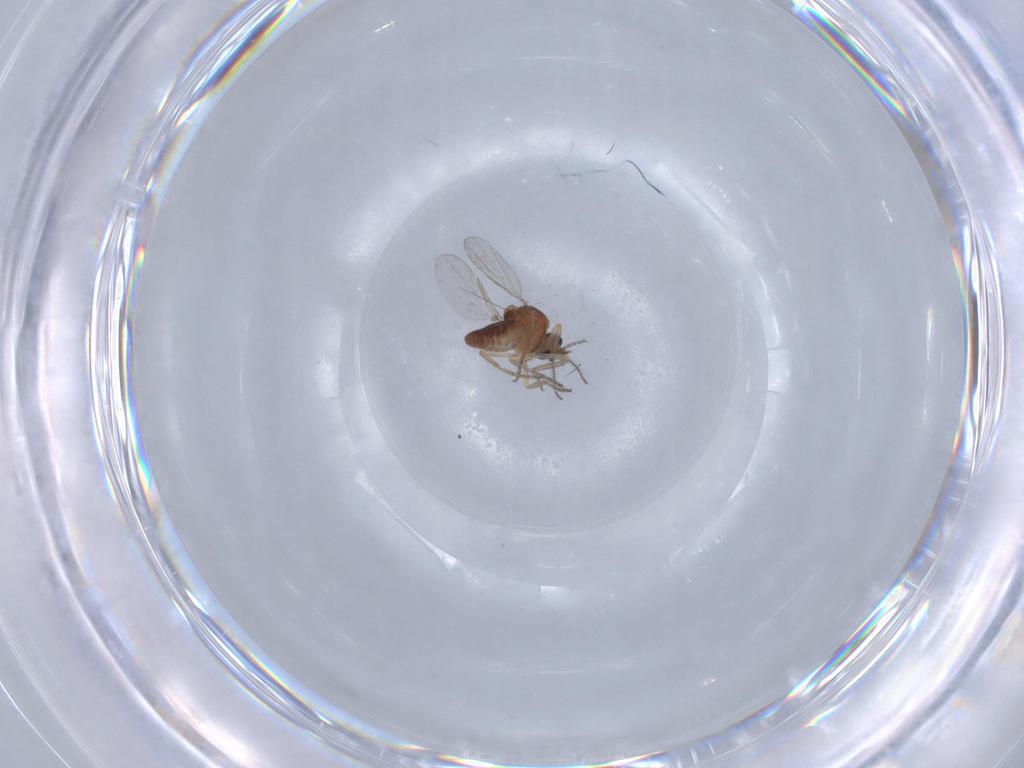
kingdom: Animalia
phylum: Arthropoda
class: Insecta
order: Diptera
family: Ceratopogonidae
